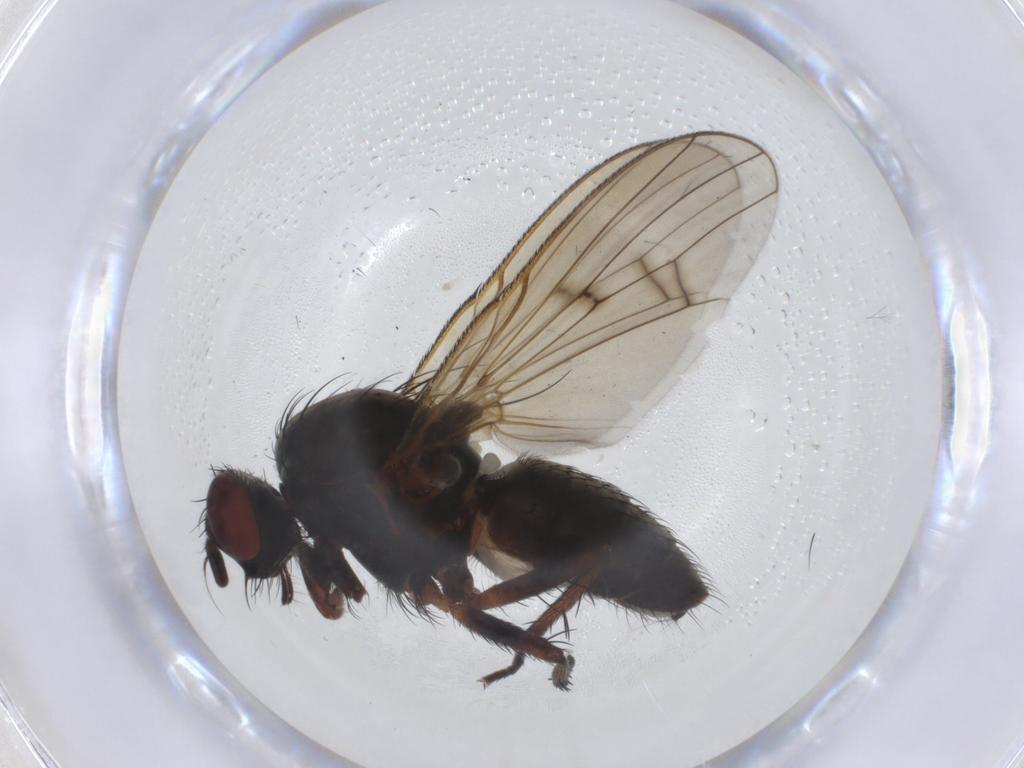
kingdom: Animalia
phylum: Arthropoda
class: Insecta
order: Diptera
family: Anthomyiidae
